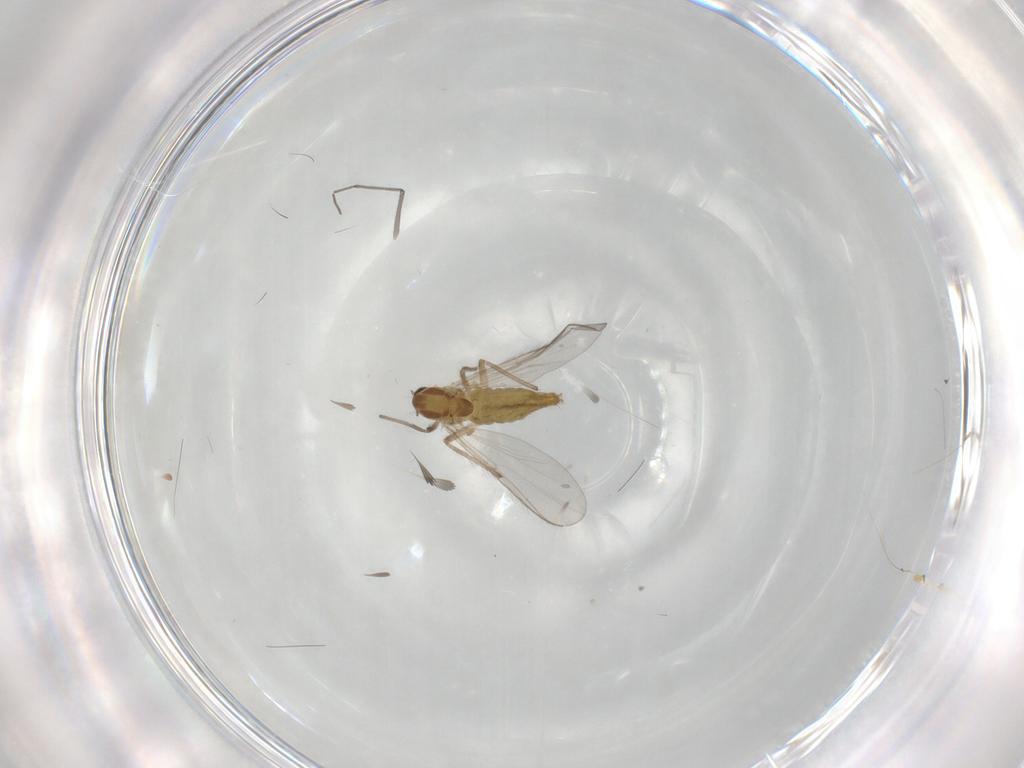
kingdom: Animalia
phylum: Arthropoda
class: Insecta
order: Diptera
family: Chironomidae
